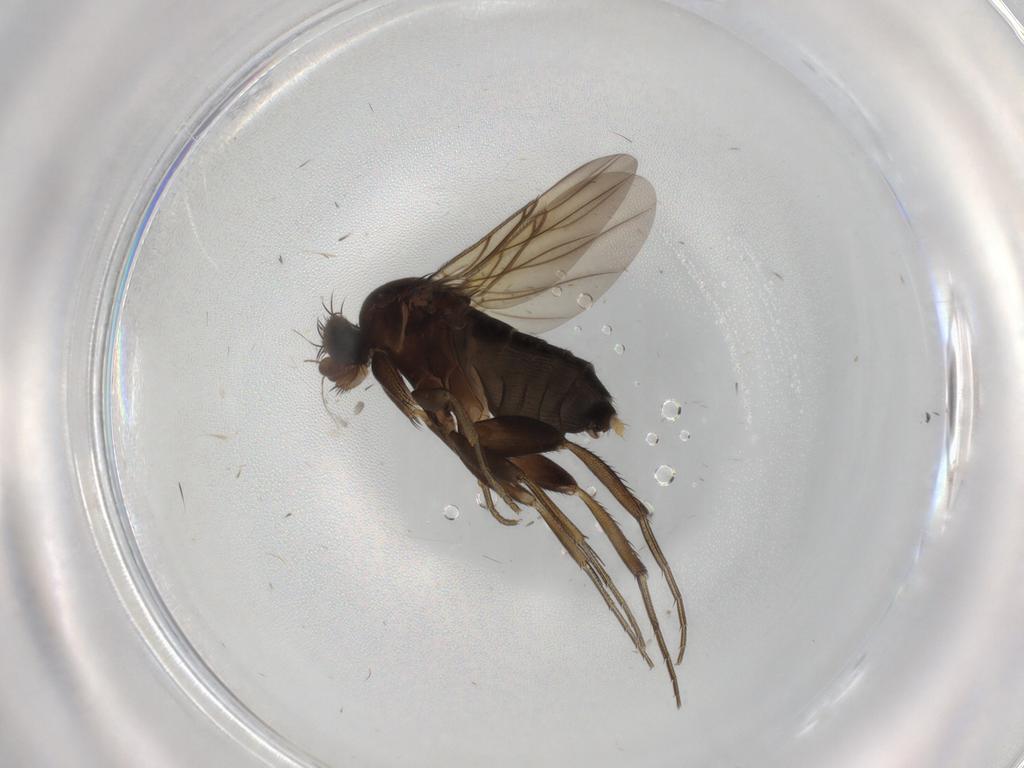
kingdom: Animalia
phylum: Arthropoda
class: Insecta
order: Diptera
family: Phoridae
